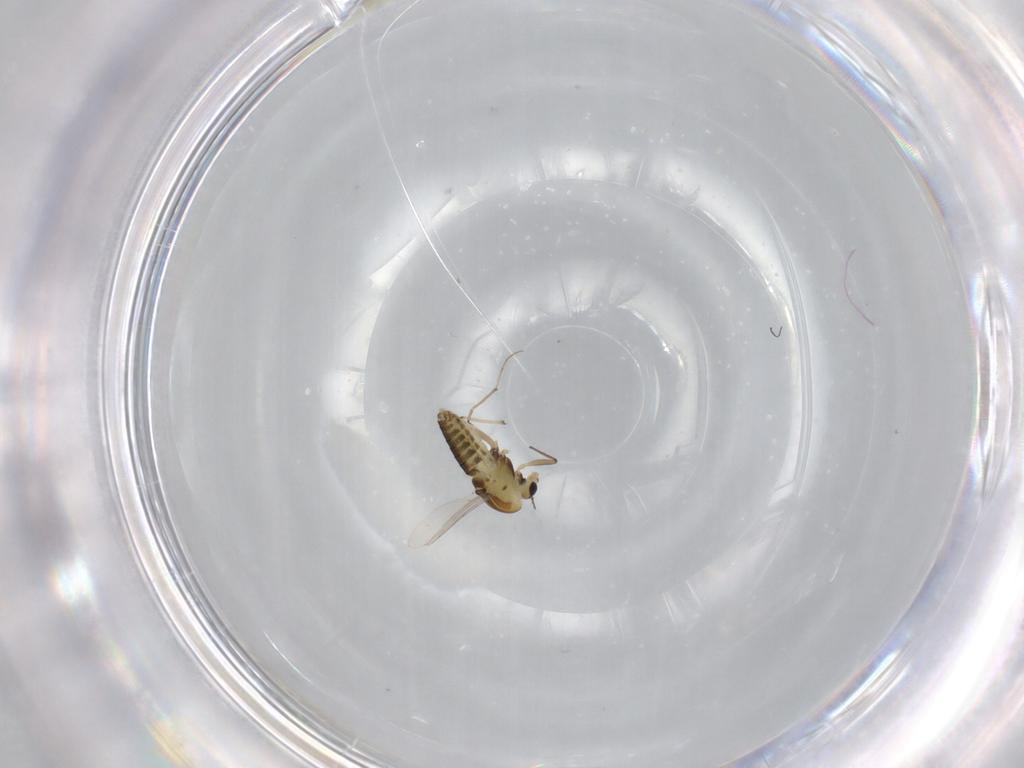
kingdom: Animalia
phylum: Arthropoda
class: Insecta
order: Diptera
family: Chironomidae
